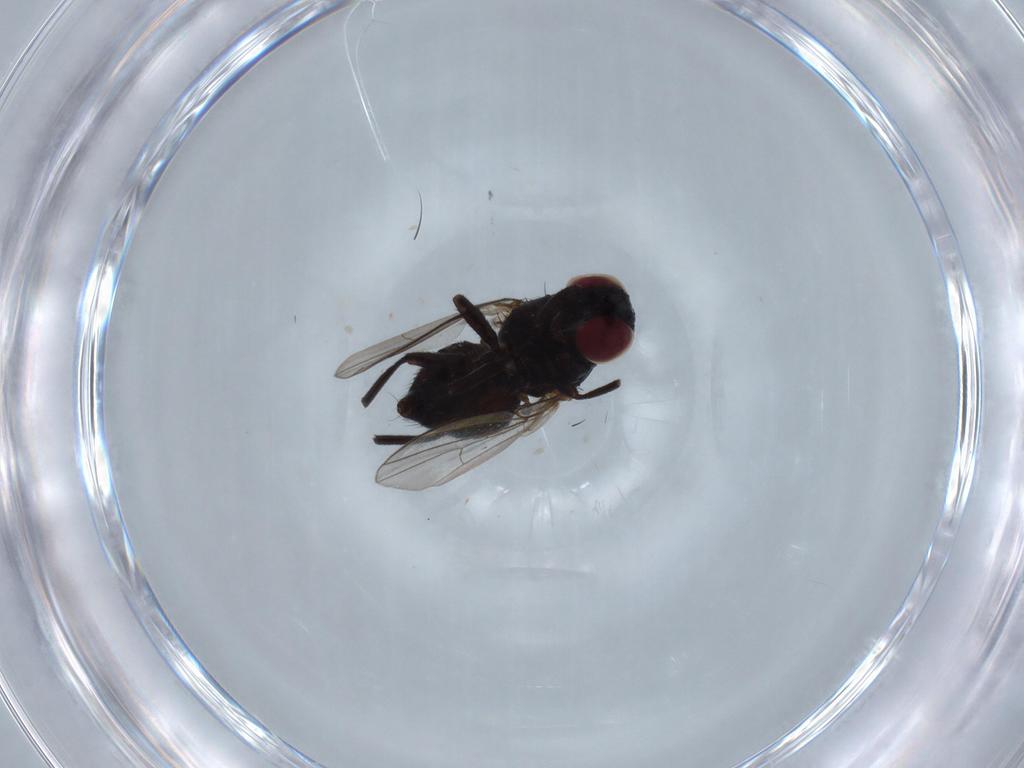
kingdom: Animalia
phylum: Arthropoda
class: Insecta
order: Diptera
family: Agromyzidae
